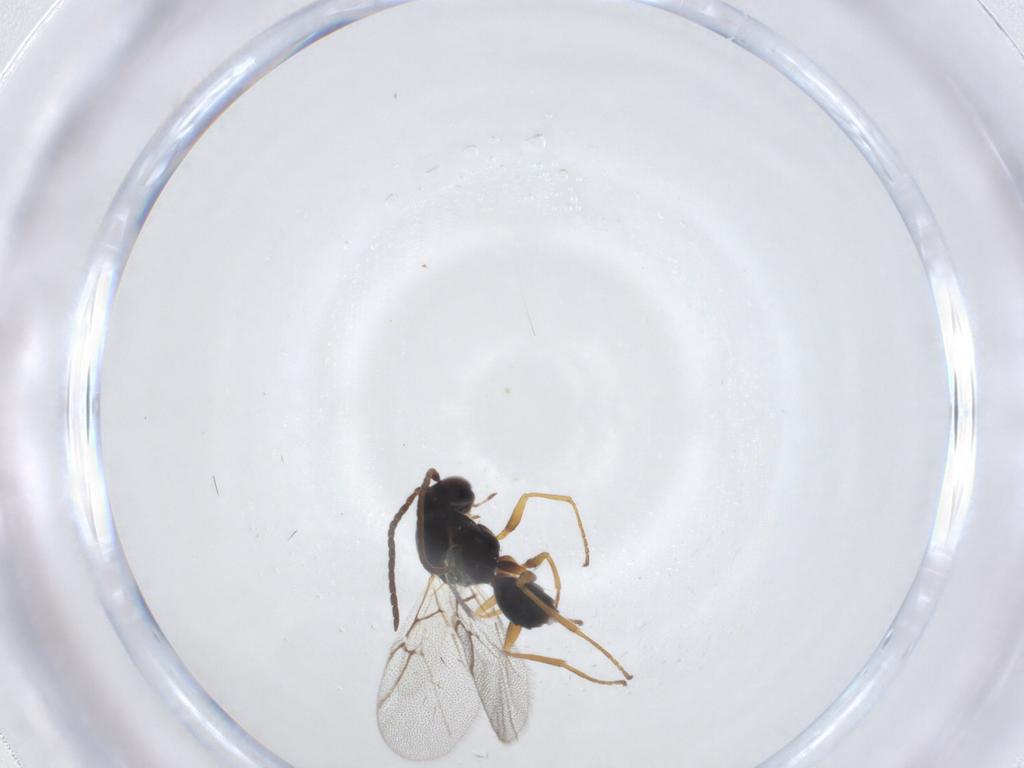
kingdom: Animalia
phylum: Arthropoda
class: Insecta
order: Hymenoptera
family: Cynipidae
